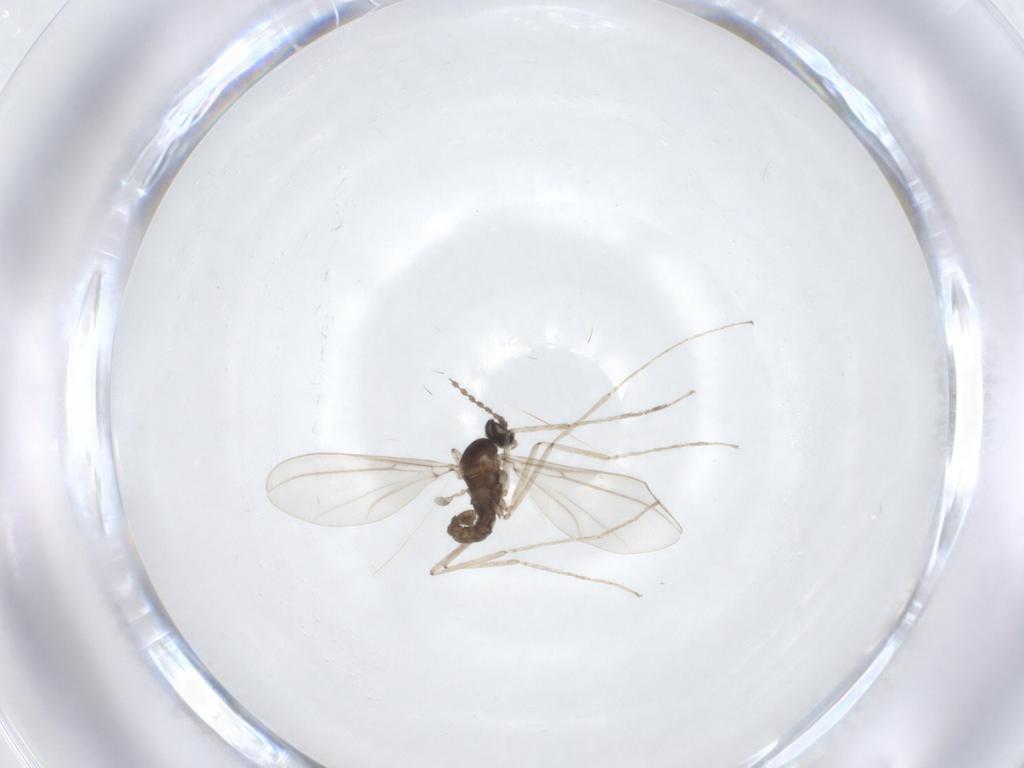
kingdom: Animalia
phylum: Arthropoda
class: Insecta
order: Diptera
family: Cecidomyiidae
